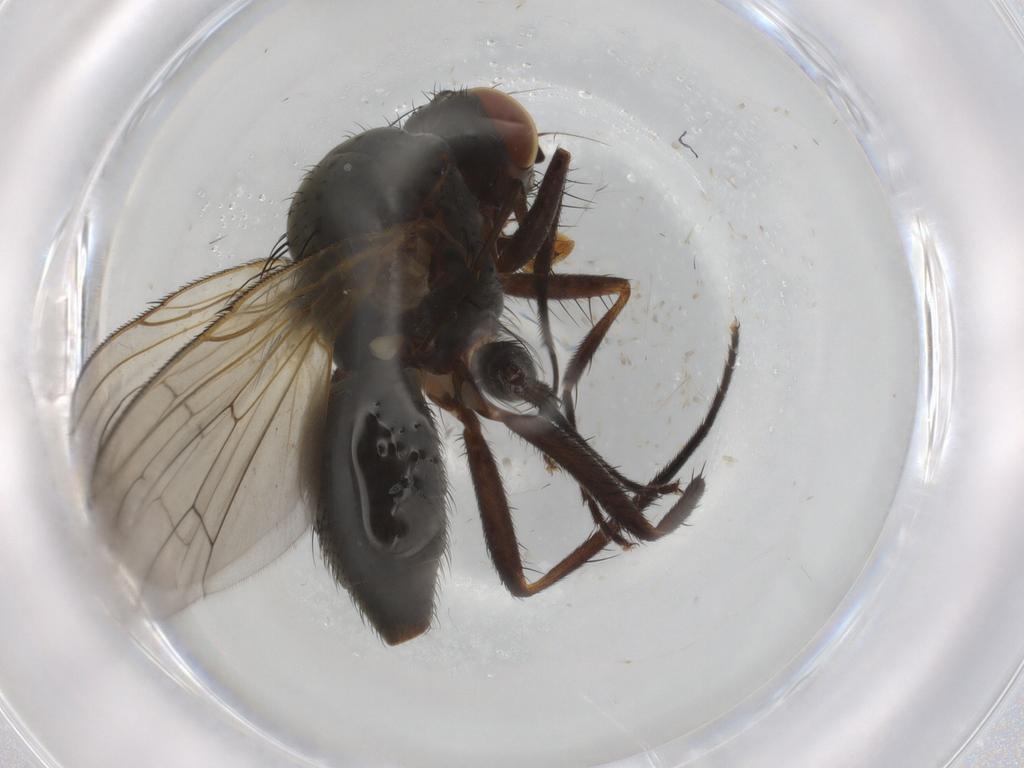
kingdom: Animalia
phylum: Arthropoda
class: Insecta
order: Diptera
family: Anthomyiidae
